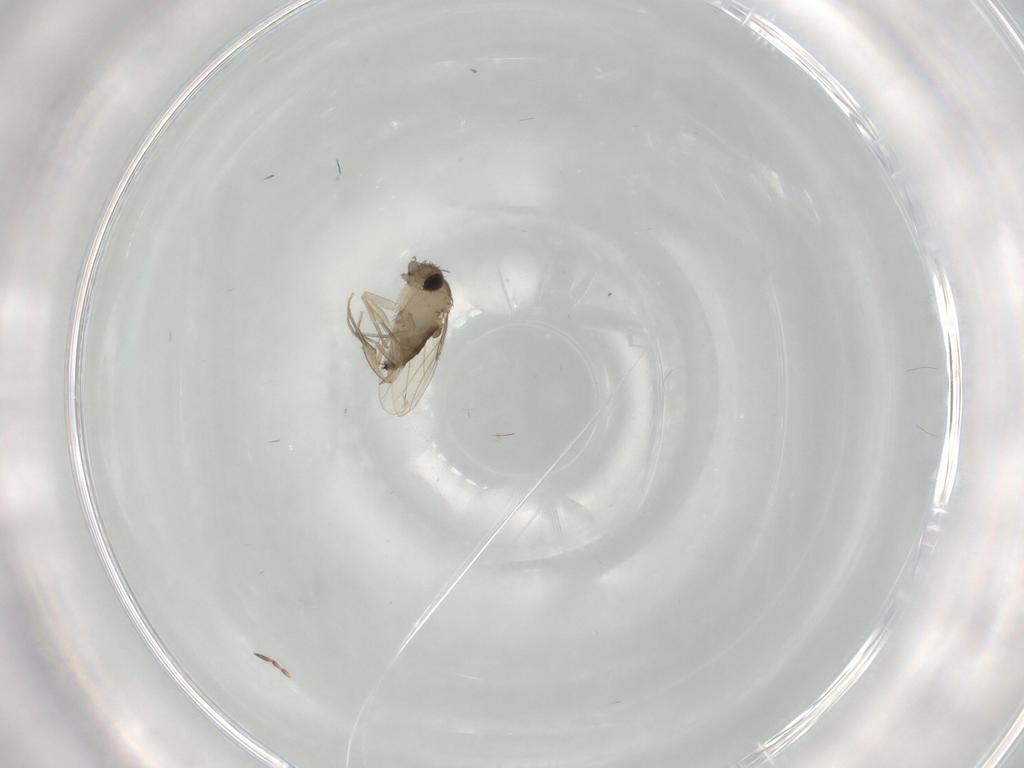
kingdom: Animalia
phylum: Arthropoda
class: Insecta
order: Diptera
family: Phoridae
